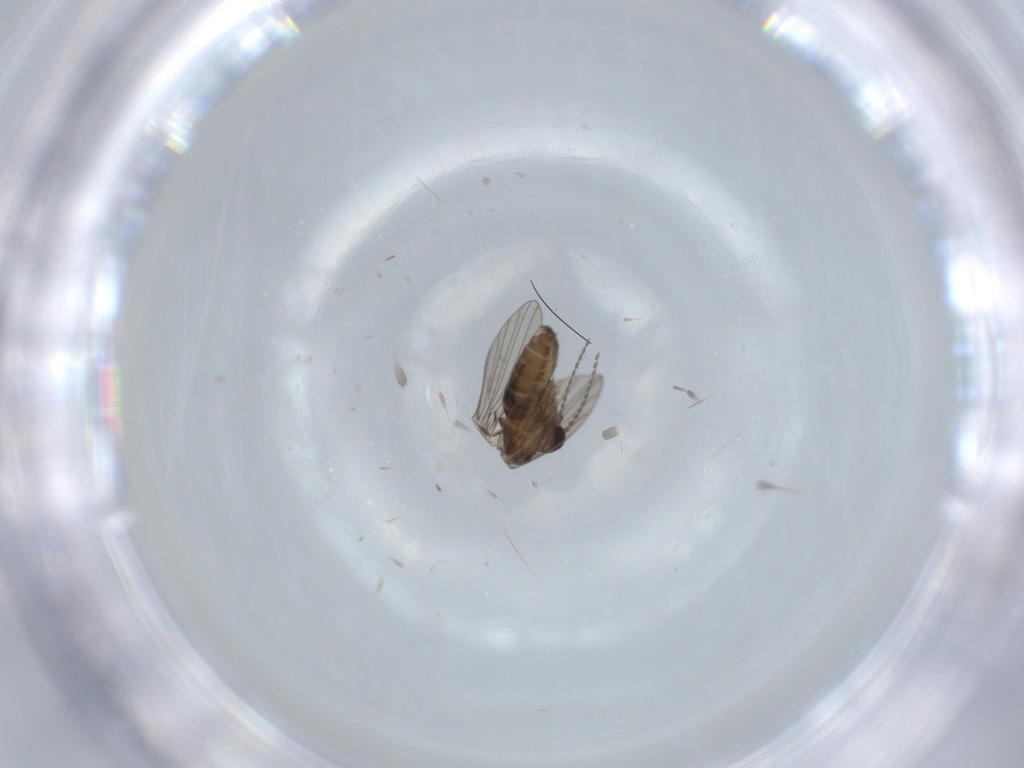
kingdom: Animalia
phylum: Arthropoda
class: Insecta
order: Diptera
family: Psychodidae
